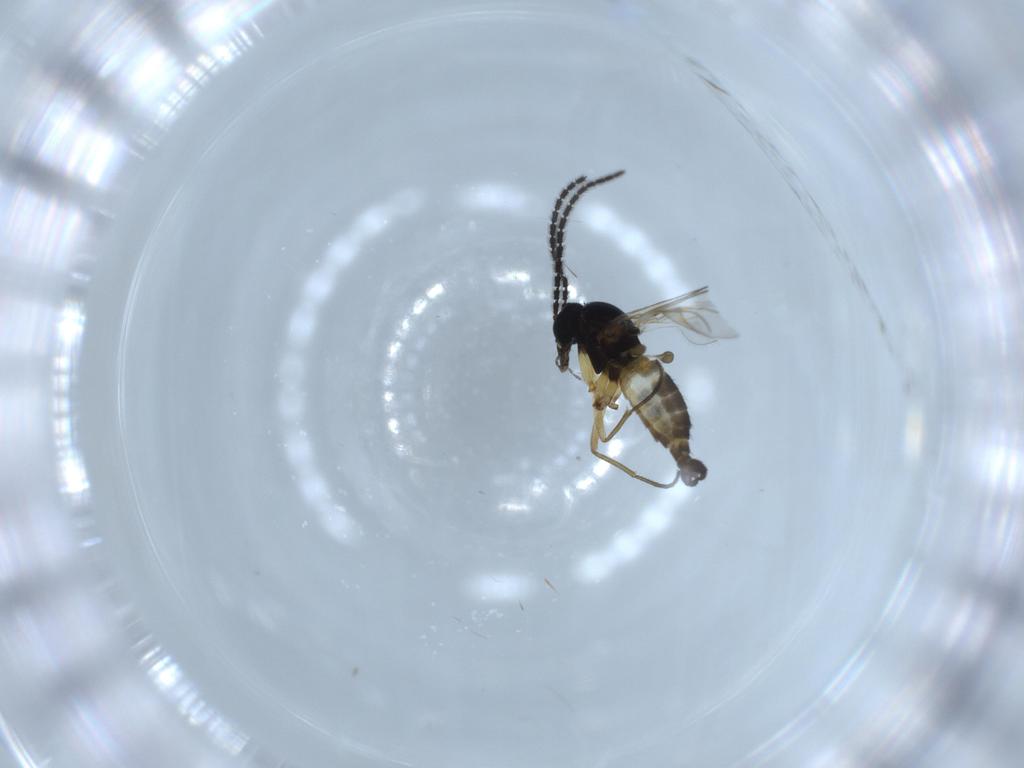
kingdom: Animalia
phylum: Arthropoda
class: Insecta
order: Diptera
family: Sciaridae
